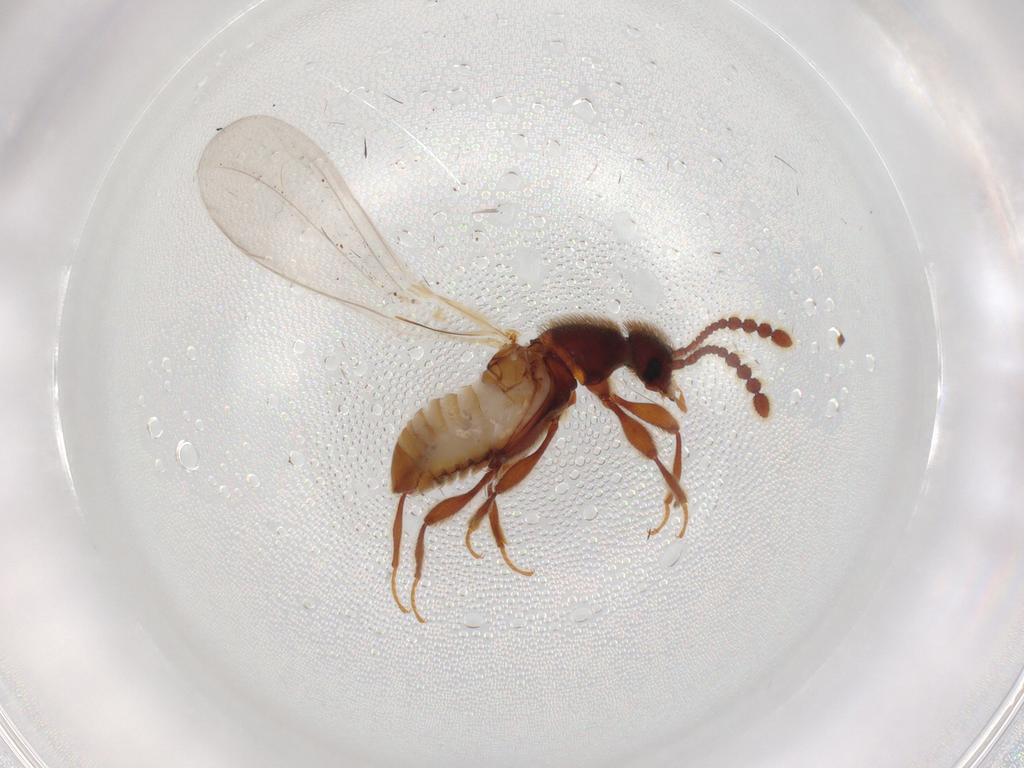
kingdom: Animalia
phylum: Arthropoda
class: Insecta
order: Coleoptera
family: Staphylinidae
